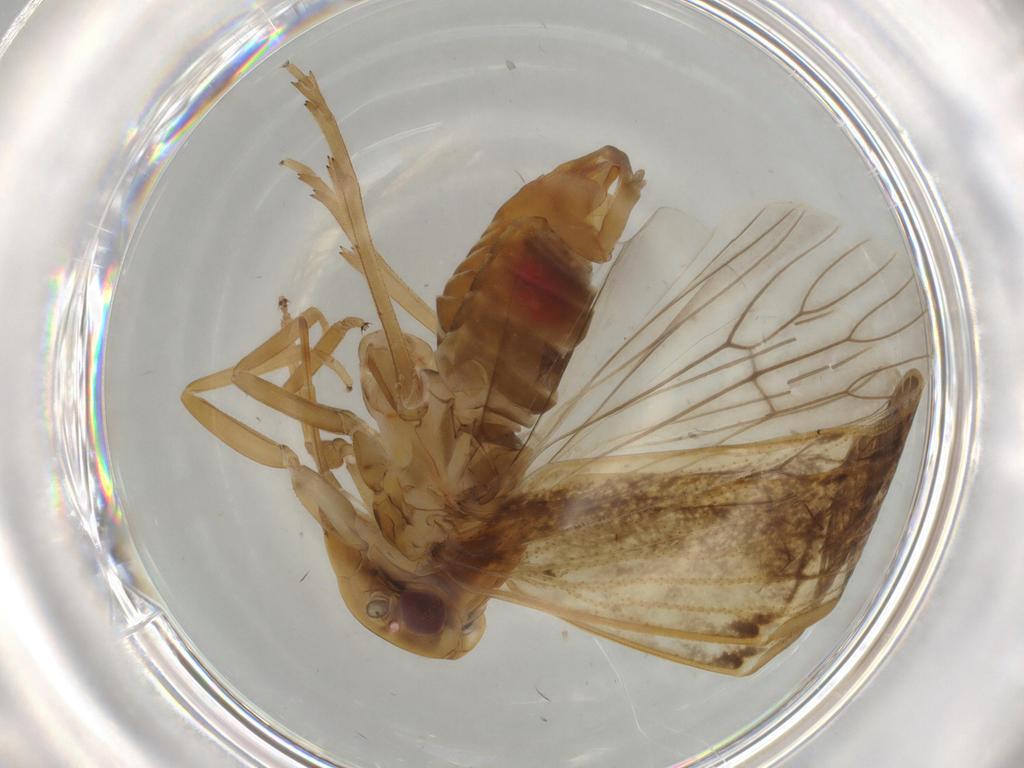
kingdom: Animalia
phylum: Arthropoda
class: Insecta
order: Hemiptera
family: Cixiidae
